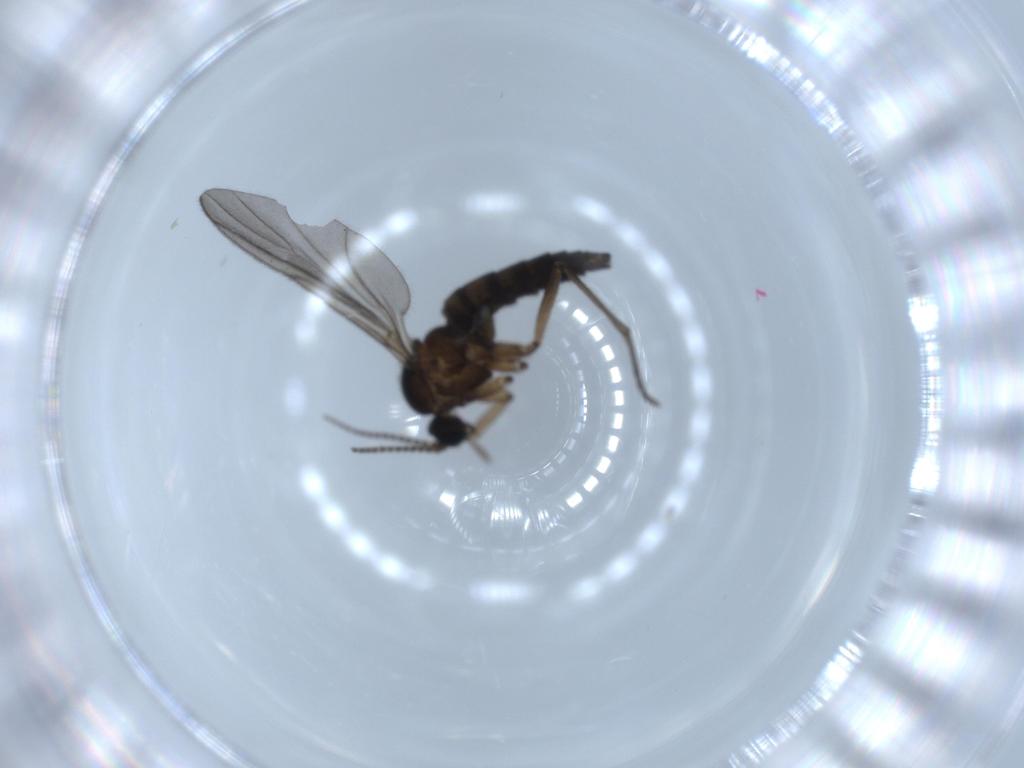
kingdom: Animalia
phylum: Arthropoda
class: Insecta
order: Diptera
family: Sciaridae
